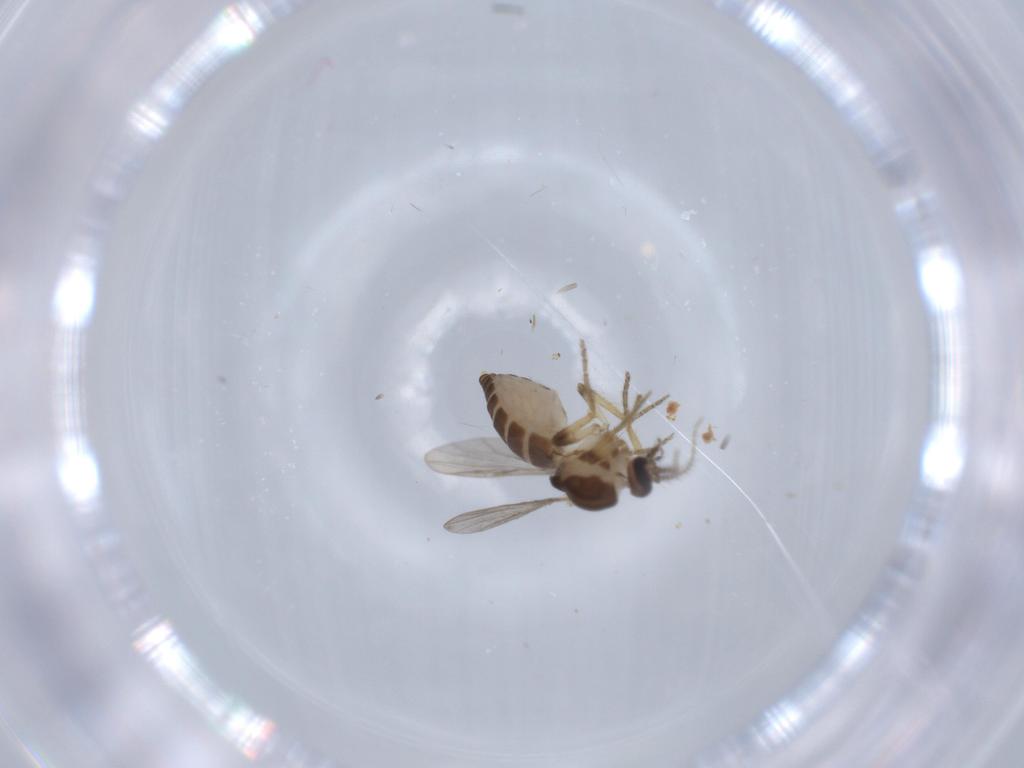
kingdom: Animalia
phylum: Arthropoda
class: Insecta
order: Diptera
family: Ceratopogonidae
